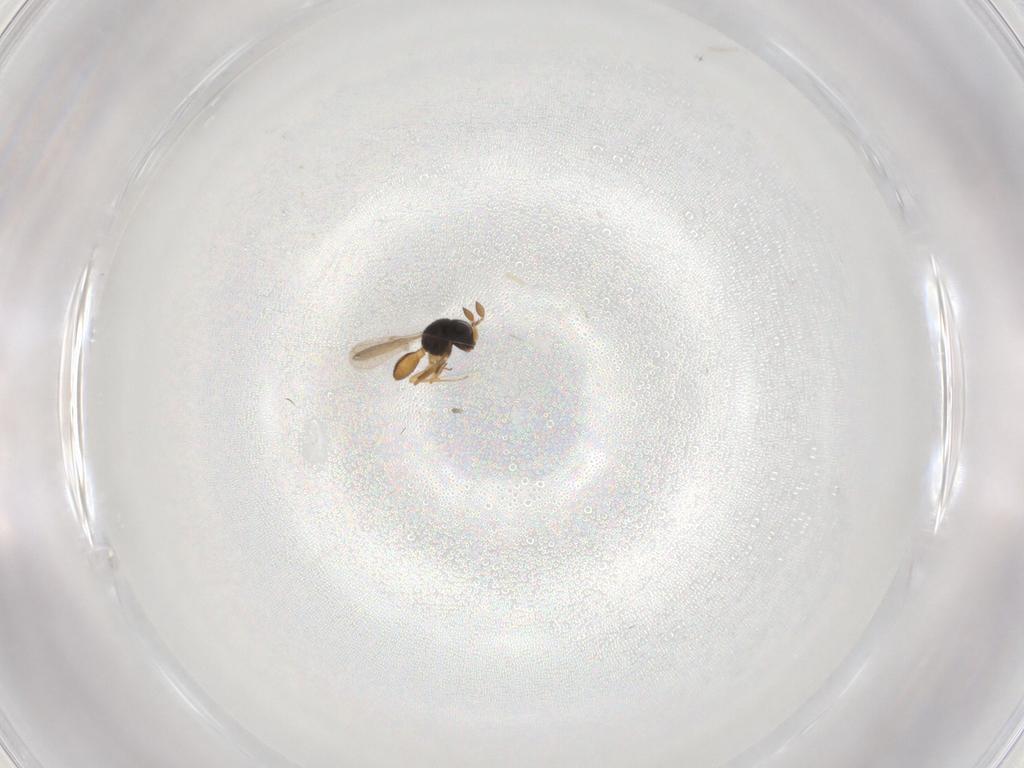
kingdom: Animalia
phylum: Arthropoda
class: Insecta
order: Hymenoptera
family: Scelionidae
